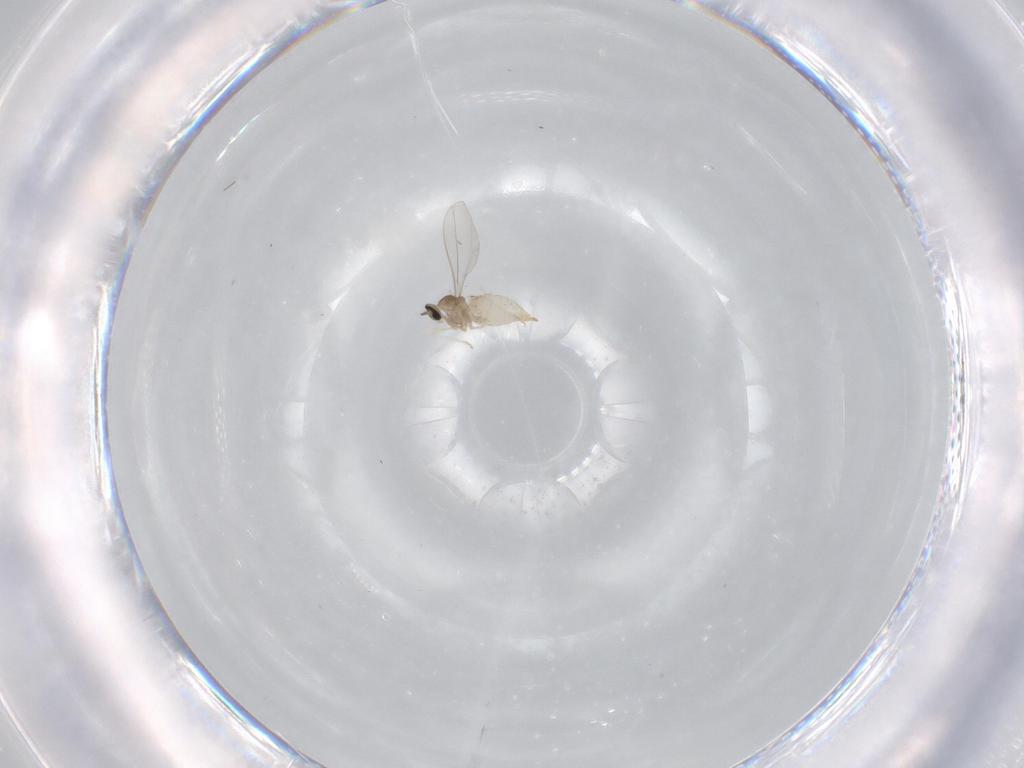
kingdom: Animalia
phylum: Arthropoda
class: Insecta
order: Diptera
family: Cecidomyiidae
